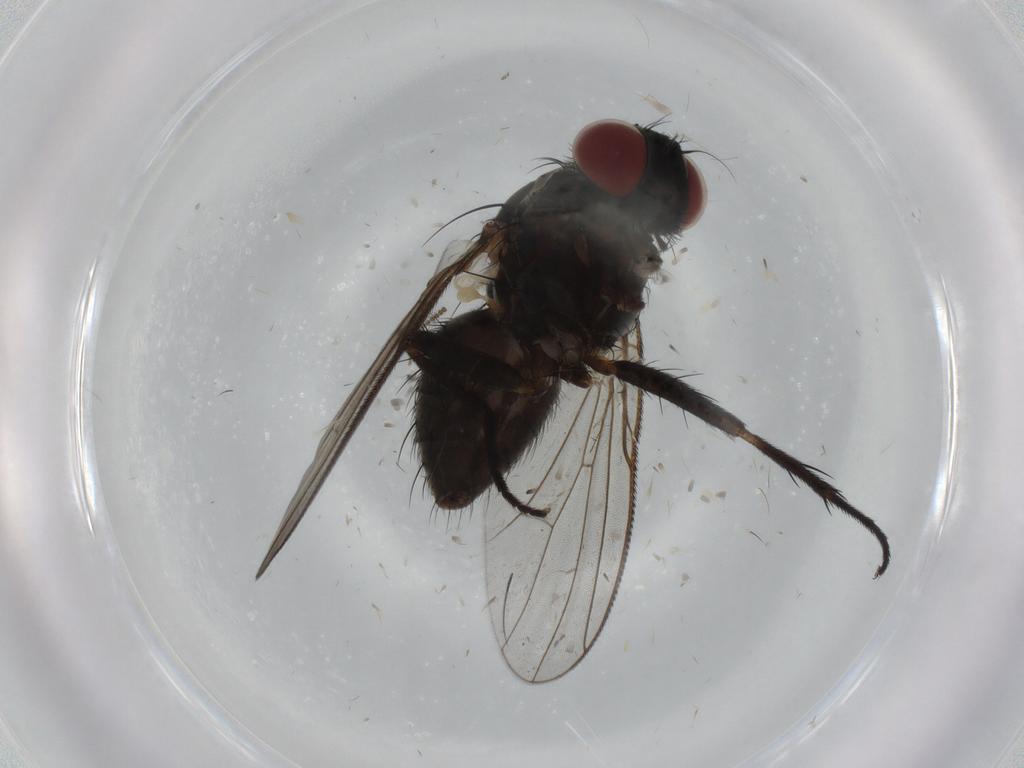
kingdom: Animalia
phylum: Arthropoda
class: Insecta
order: Diptera
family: Muscidae
